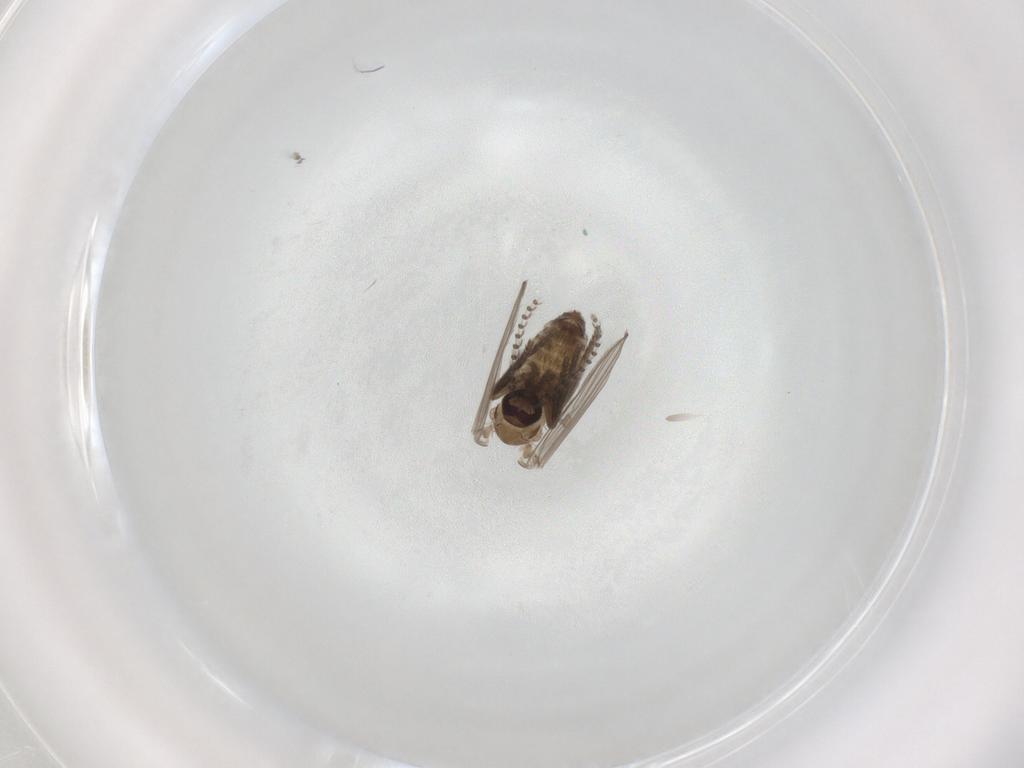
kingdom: Animalia
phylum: Arthropoda
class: Insecta
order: Diptera
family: Psychodidae
